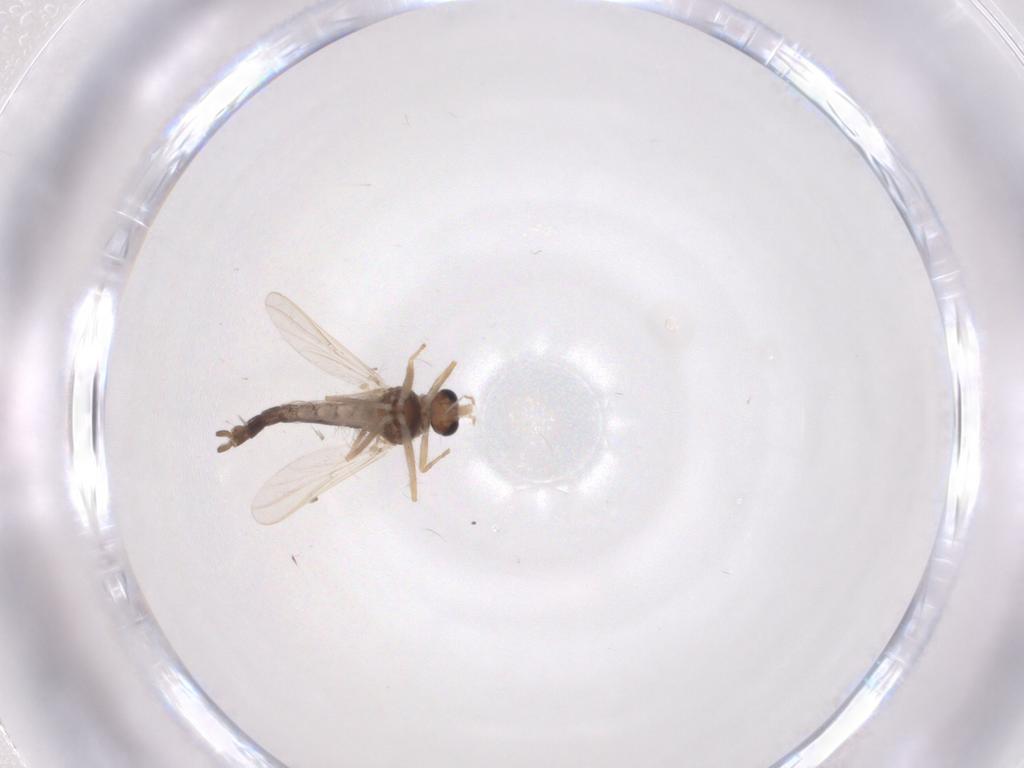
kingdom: Animalia
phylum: Arthropoda
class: Insecta
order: Diptera
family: Chironomidae
